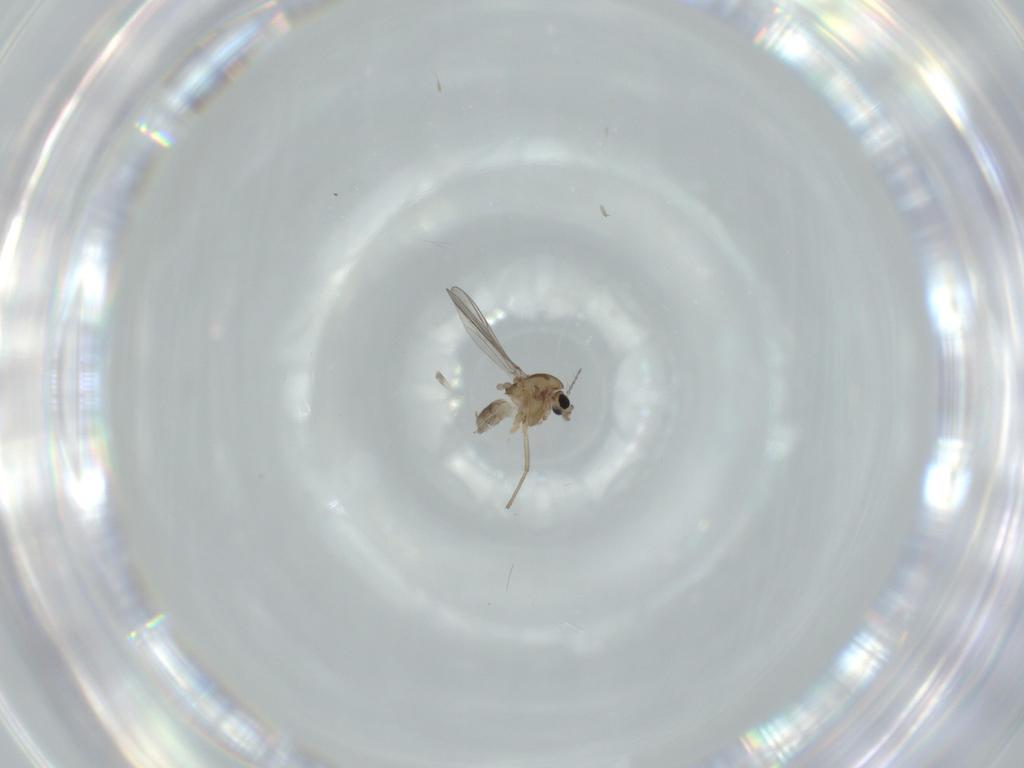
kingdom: Animalia
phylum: Arthropoda
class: Insecta
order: Diptera
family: Chironomidae
